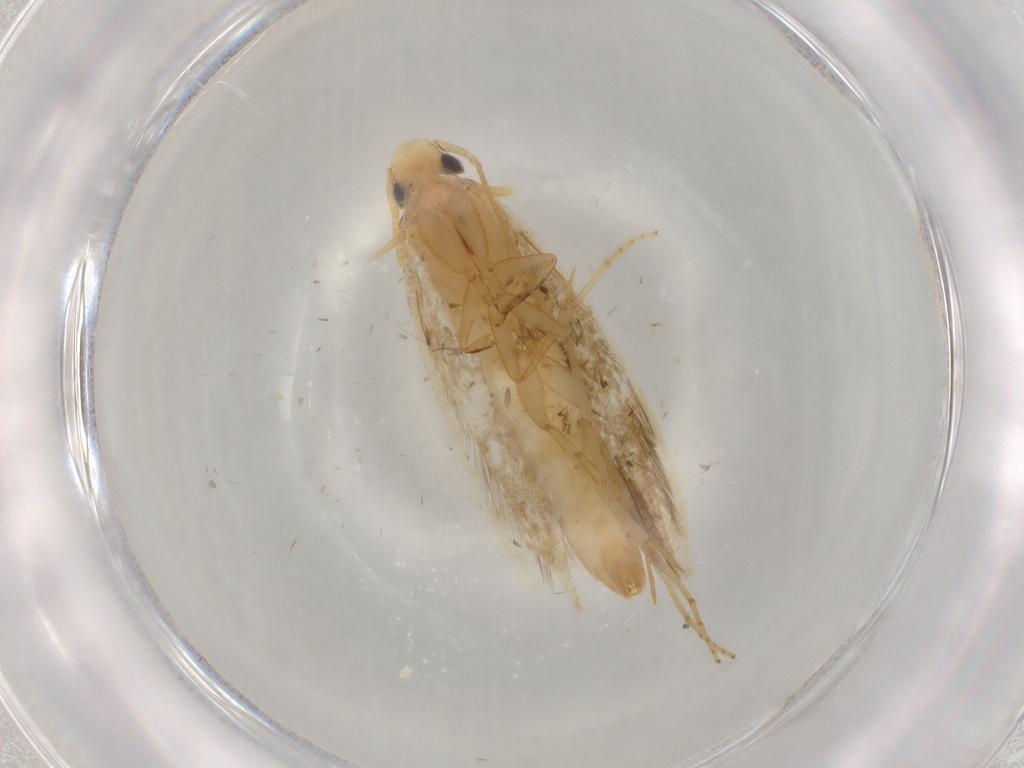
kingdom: Animalia
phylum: Arthropoda
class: Insecta
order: Lepidoptera
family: Tineidae
